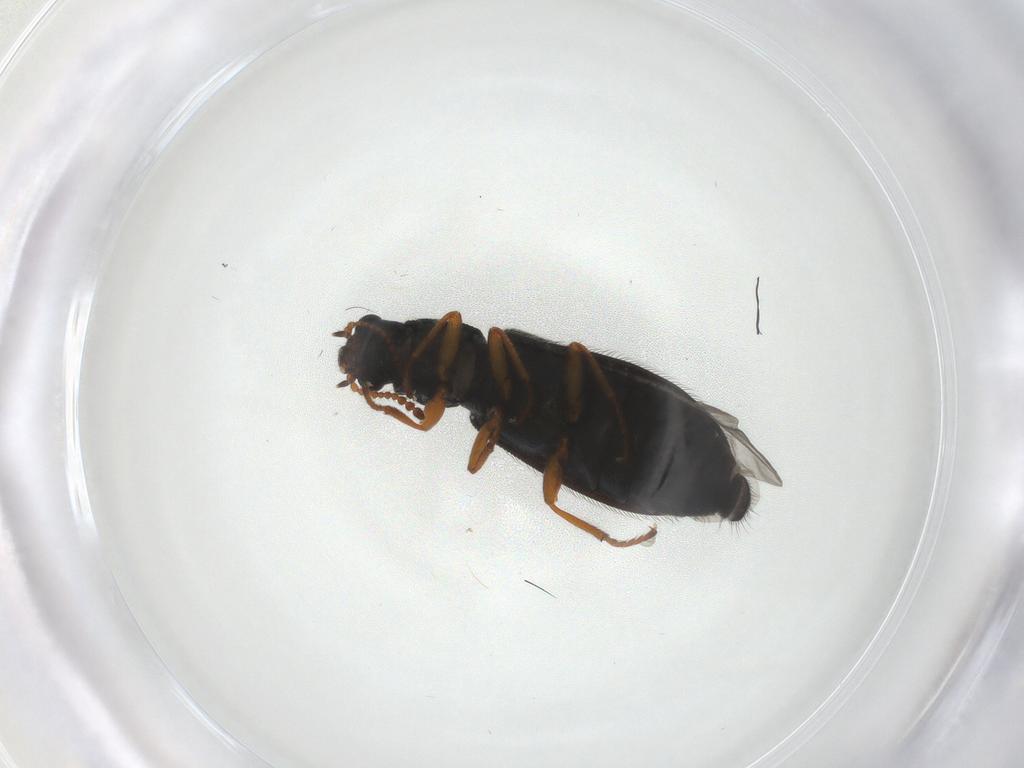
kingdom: Animalia
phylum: Arthropoda
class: Insecta
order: Coleoptera
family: Melyridae
